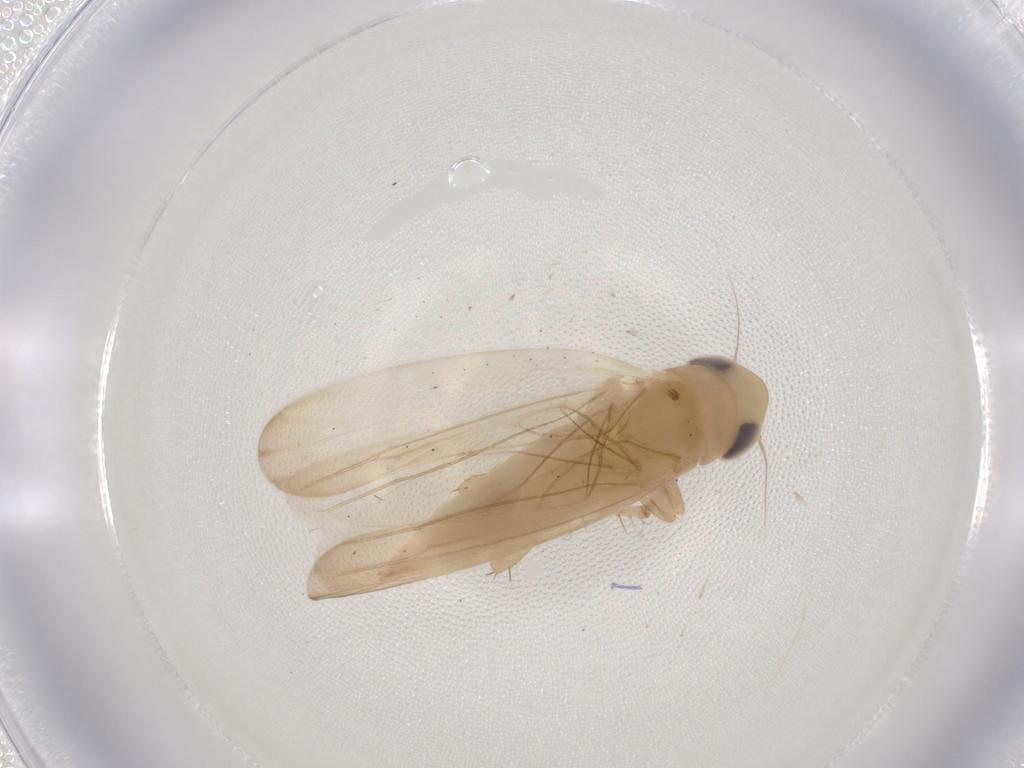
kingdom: Animalia
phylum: Arthropoda
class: Insecta
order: Hemiptera
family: Cicadellidae
